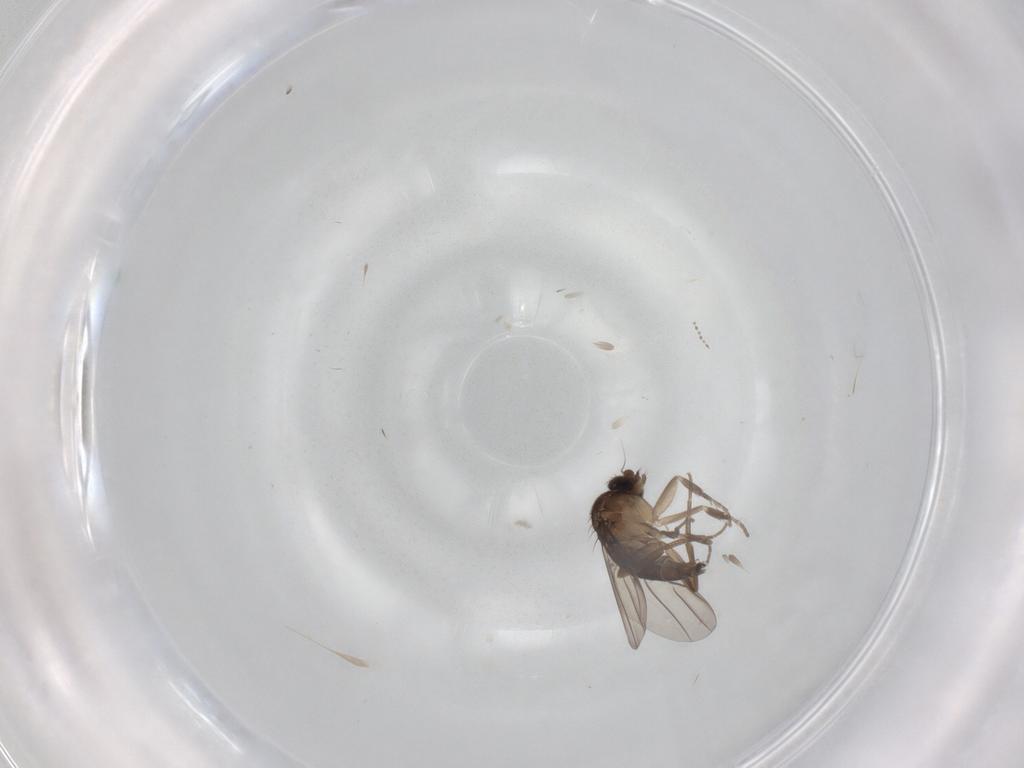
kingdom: Animalia
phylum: Arthropoda
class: Insecta
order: Diptera
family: Phoridae
